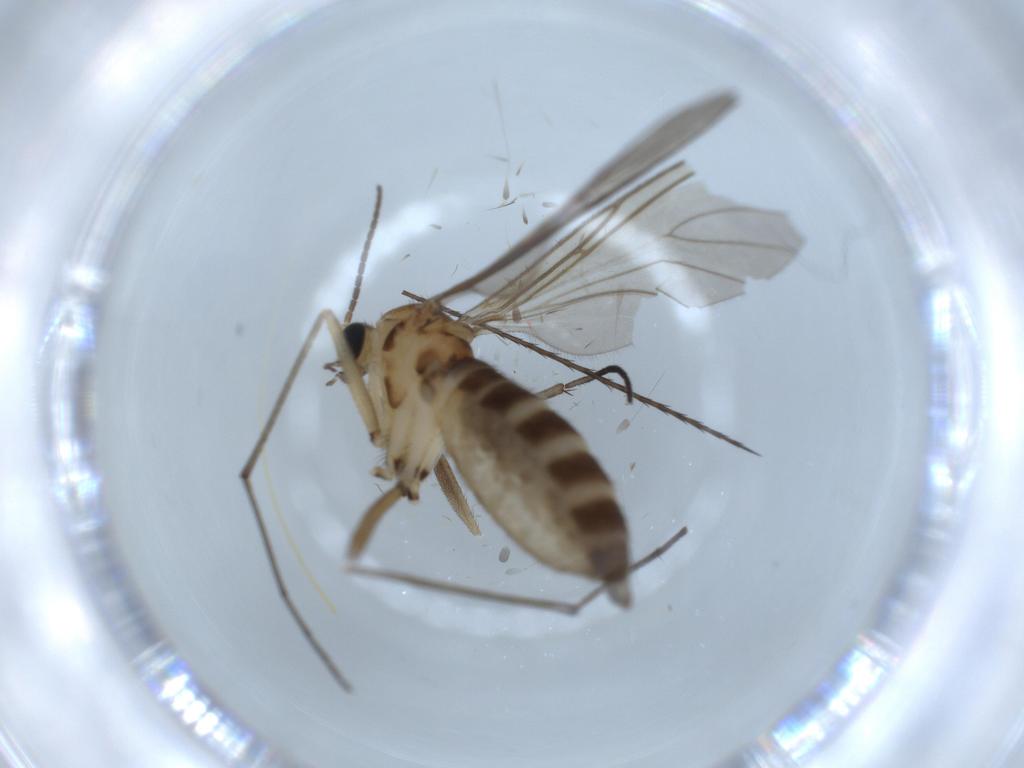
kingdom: Animalia
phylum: Arthropoda
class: Insecta
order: Diptera
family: Sciaridae
